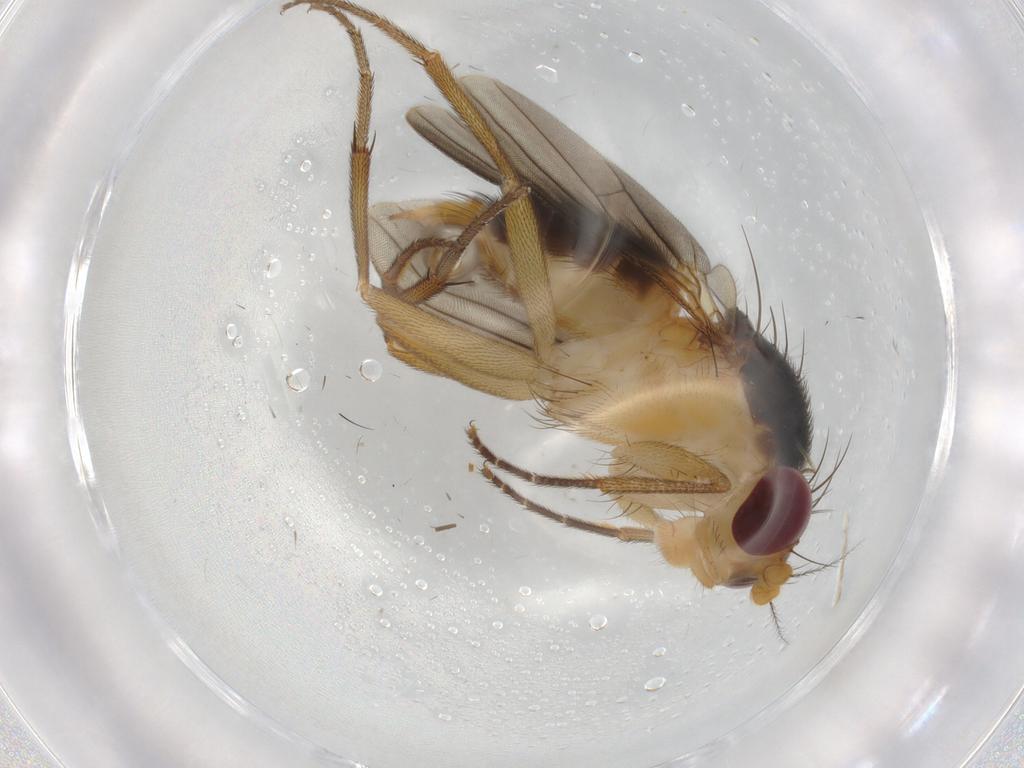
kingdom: Animalia
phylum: Arthropoda
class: Insecta
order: Diptera
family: Clusiidae
